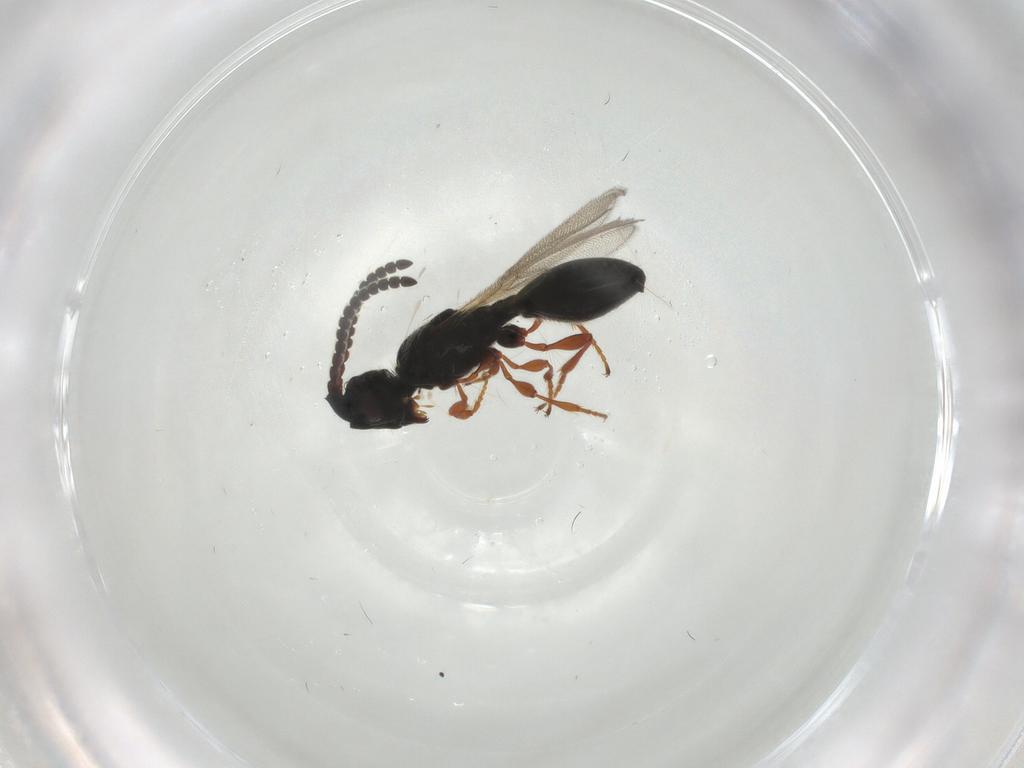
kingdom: Animalia
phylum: Arthropoda
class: Insecta
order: Hymenoptera
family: Diapriidae
